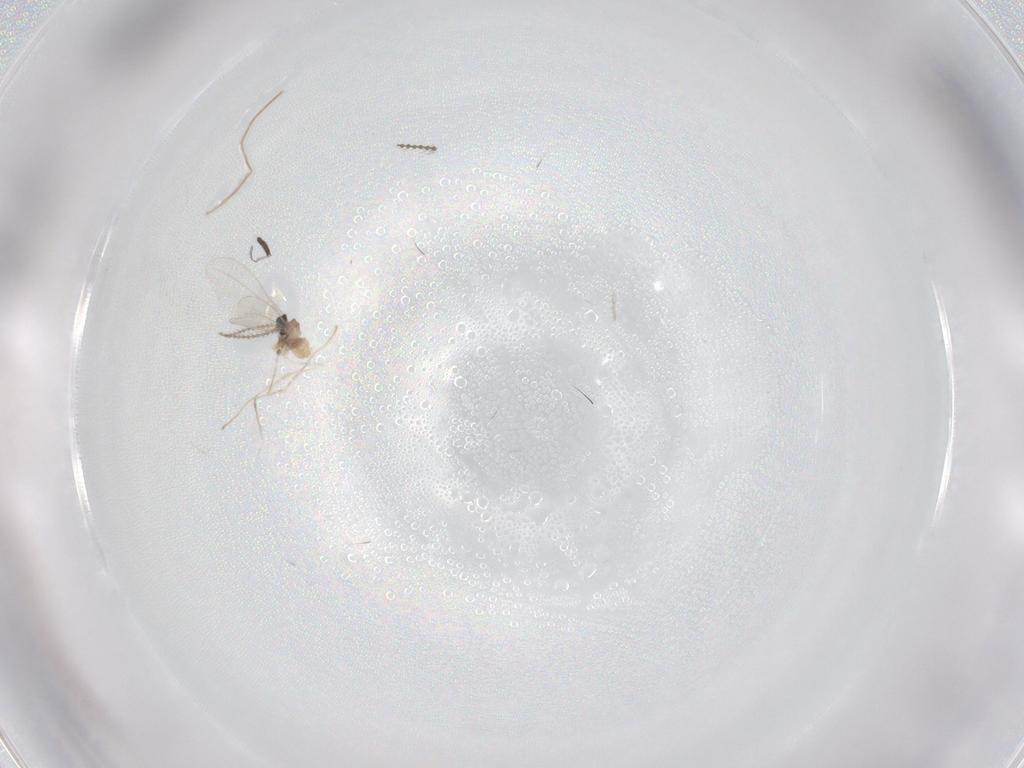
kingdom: Animalia
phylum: Arthropoda
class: Insecta
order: Diptera
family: Cecidomyiidae
